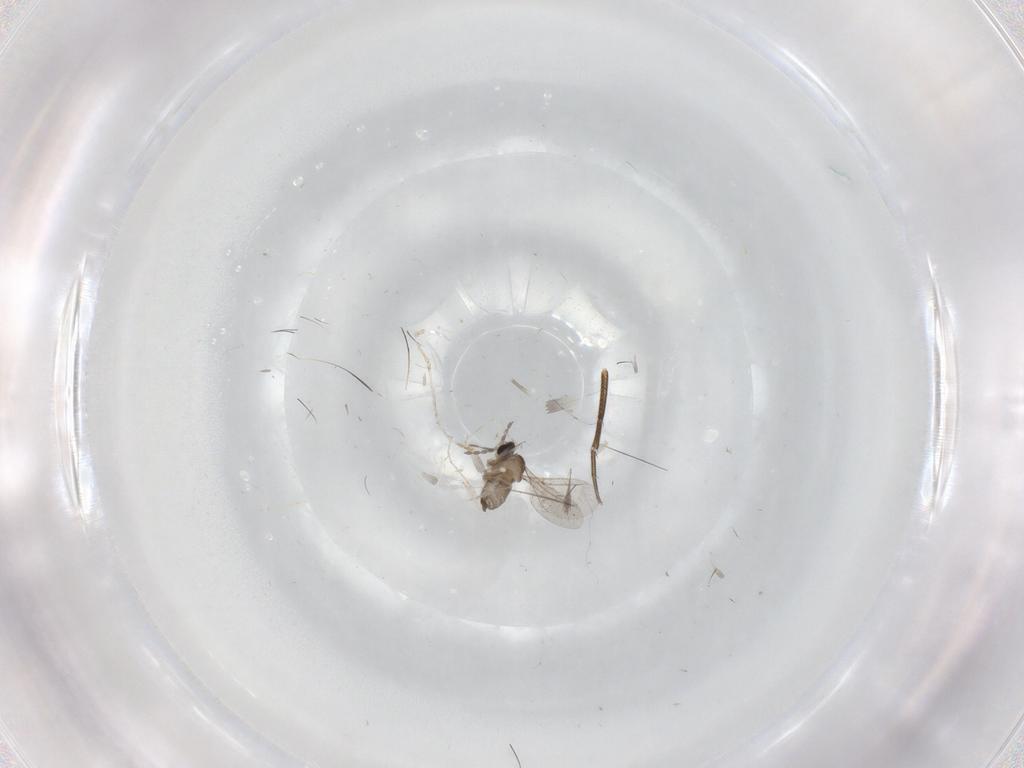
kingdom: Animalia
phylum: Arthropoda
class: Insecta
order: Diptera
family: Cecidomyiidae
